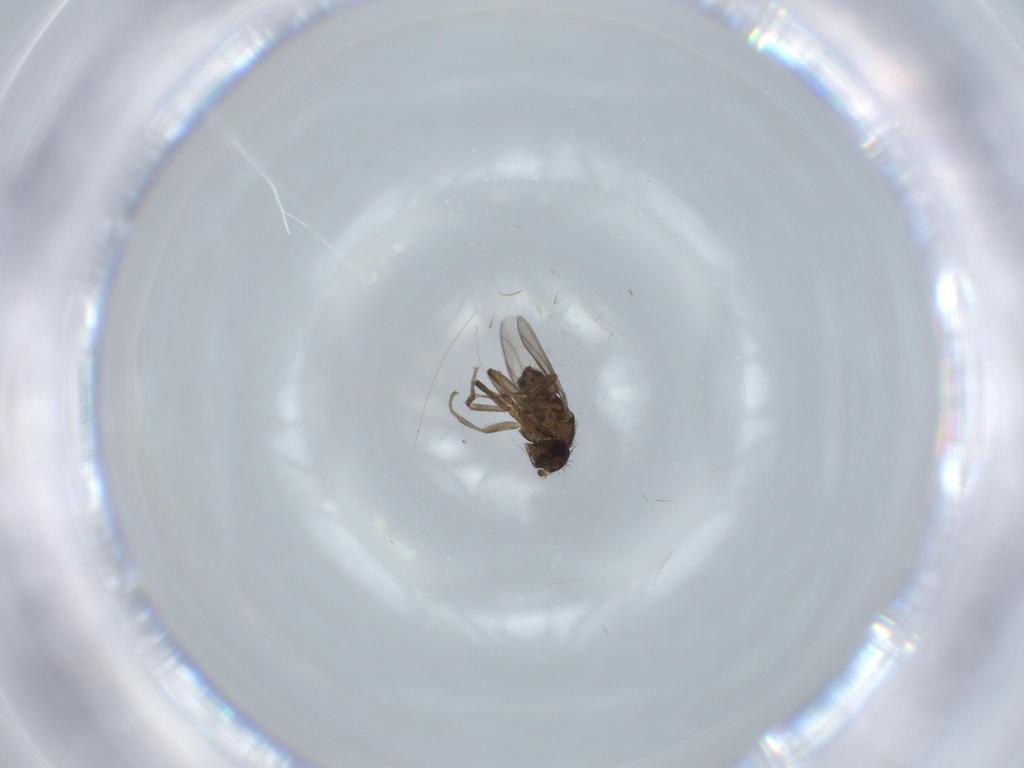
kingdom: Animalia
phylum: Arthropoda
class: Insecta
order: Diptera
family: Sphaeroceridae
